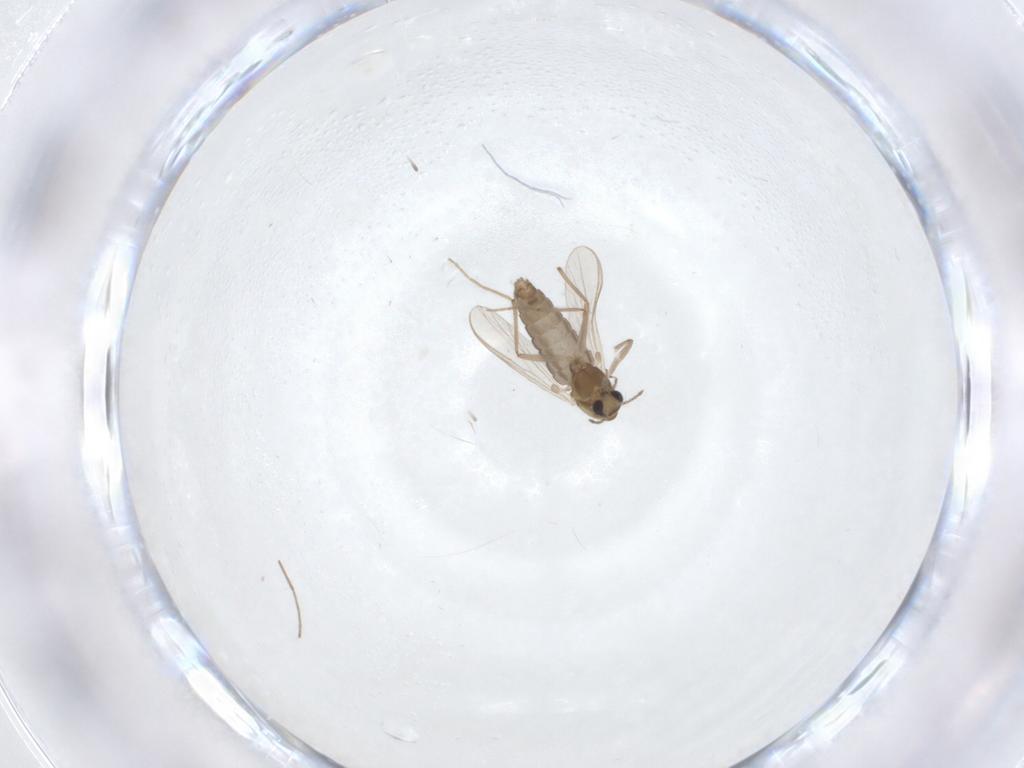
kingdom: Animalia
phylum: Arthropoda
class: Insecta
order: Diptera
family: Chironomidae
